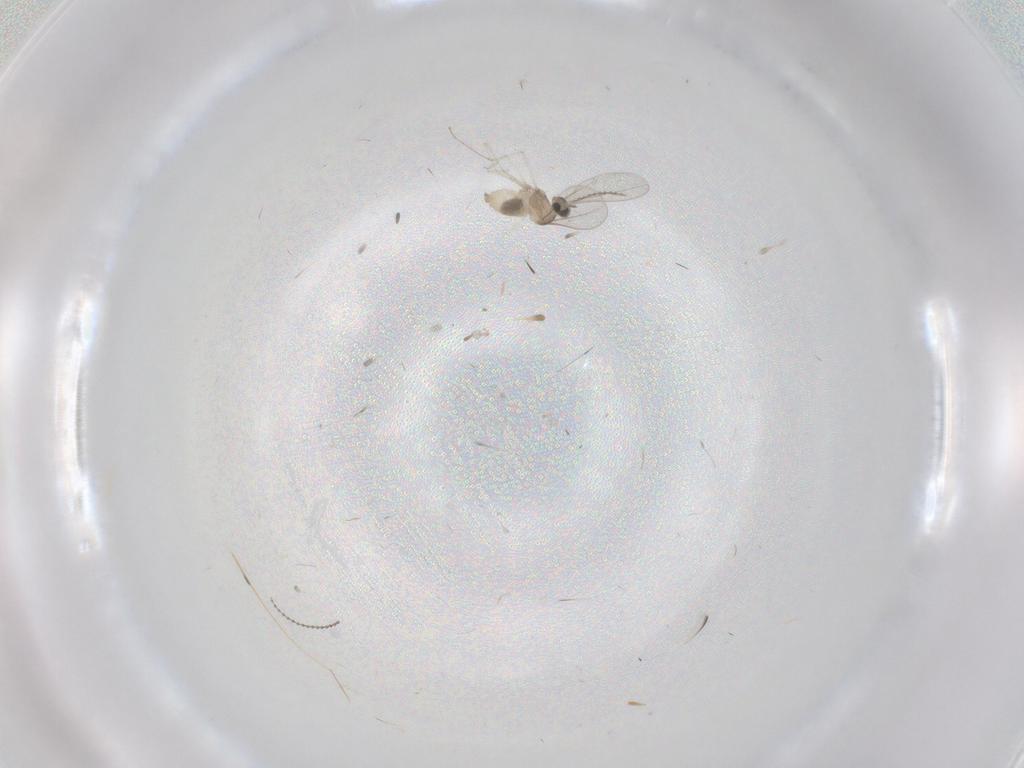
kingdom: Animalia
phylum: Arthropoda
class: Insecta
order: Diptera
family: Cecidomyiidae
